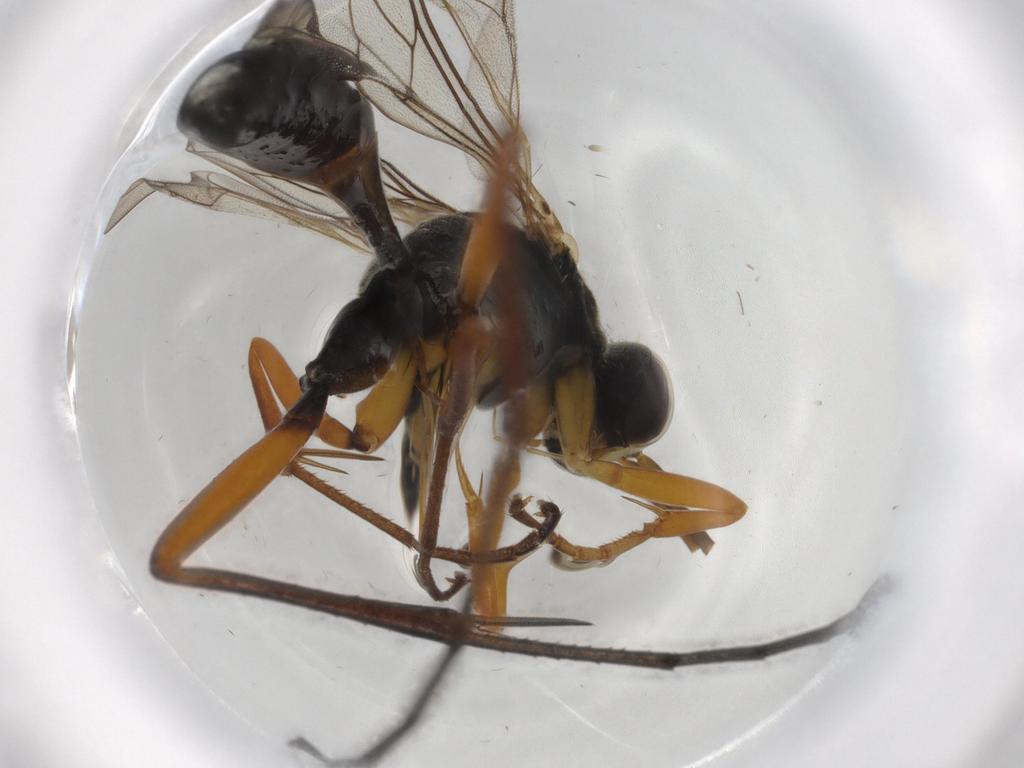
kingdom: Animalia
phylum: Arthropoda
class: Insecta
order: Hymenoptera
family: Pompilidae
